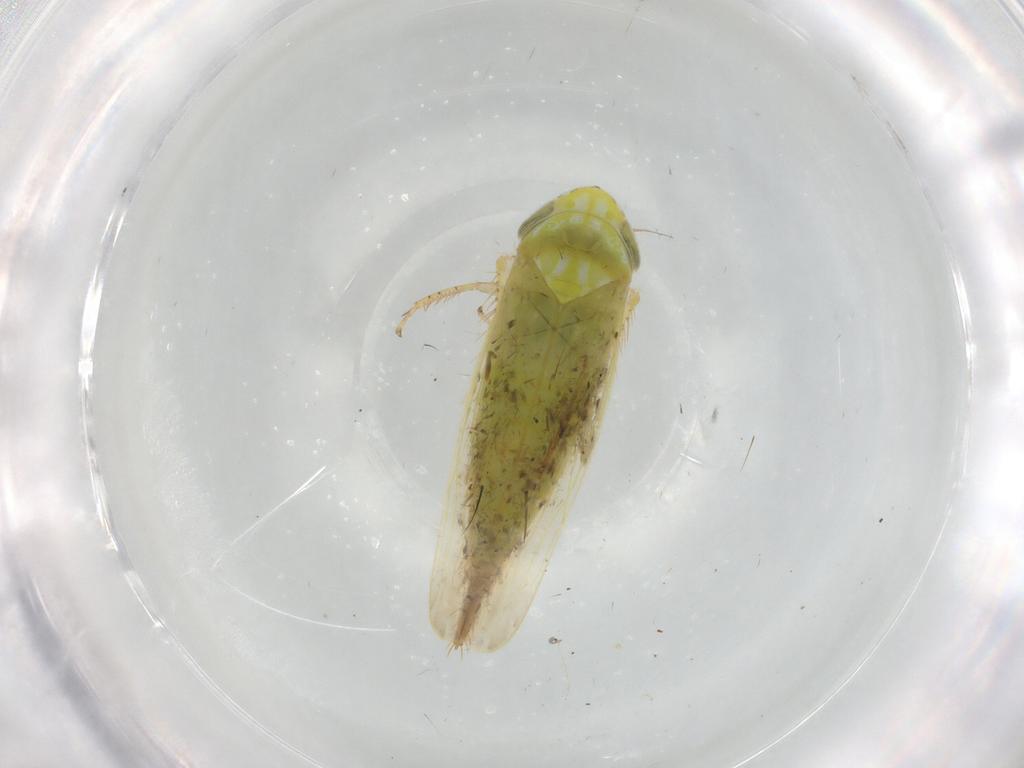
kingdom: Animalia
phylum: Arthropoda
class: Insecta
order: Hemiptera
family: Cicadellidae
